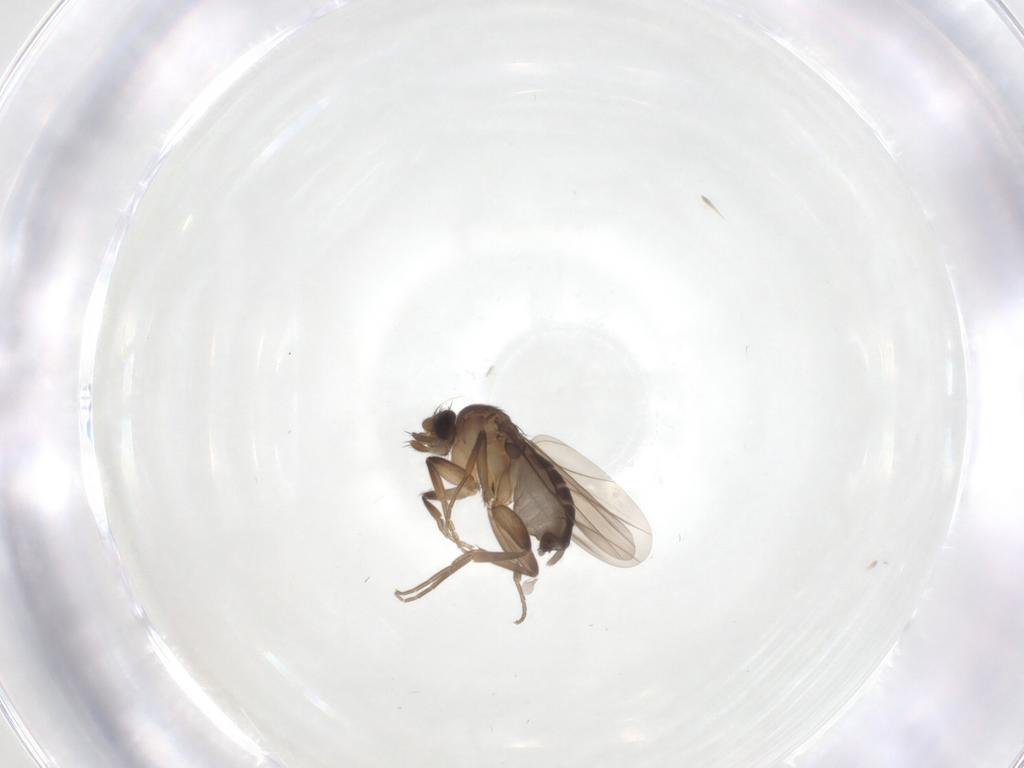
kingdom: Animalia
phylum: Arthropoda
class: Insecta
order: Diptera
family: Phoridae
